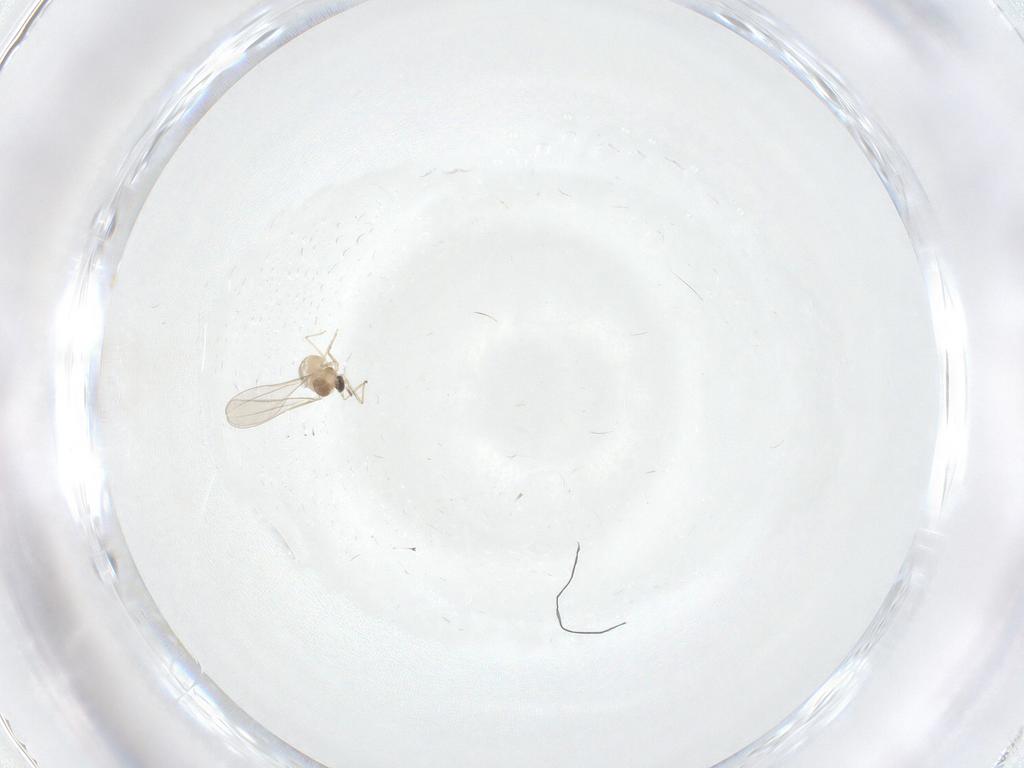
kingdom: Animalia
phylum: Arthropoda
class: Insecta
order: Diptera
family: Cecidomyiidae
